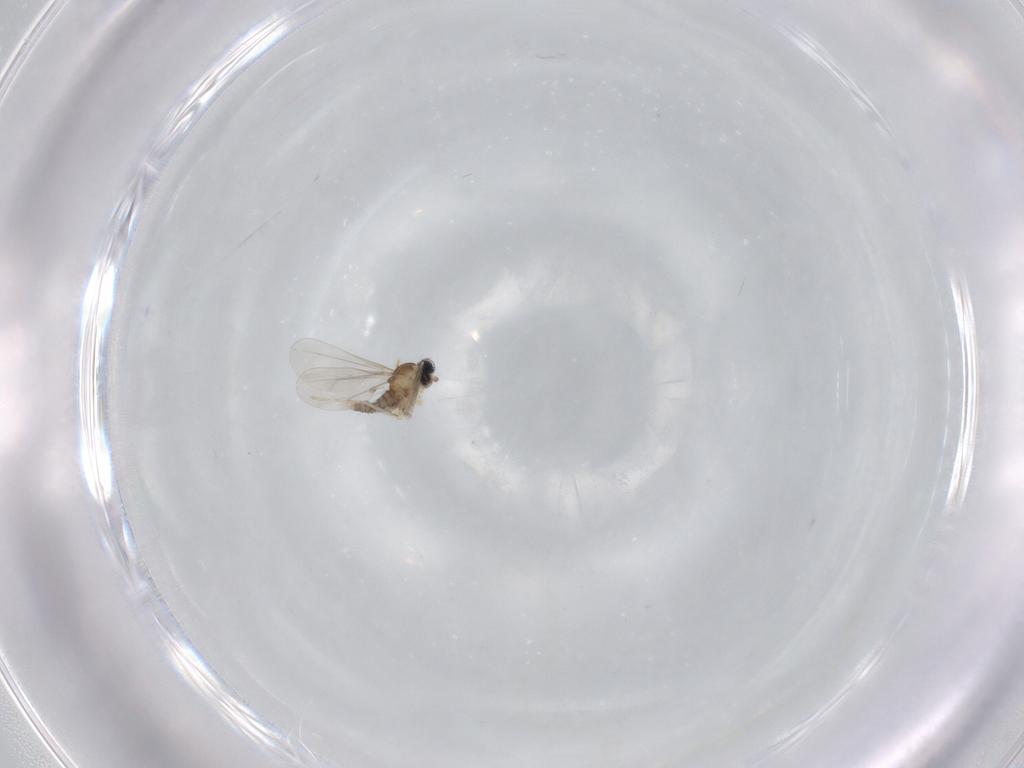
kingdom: Animalia
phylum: Arthropoda
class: Insecta
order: Diptera
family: Cecidomyiidae
